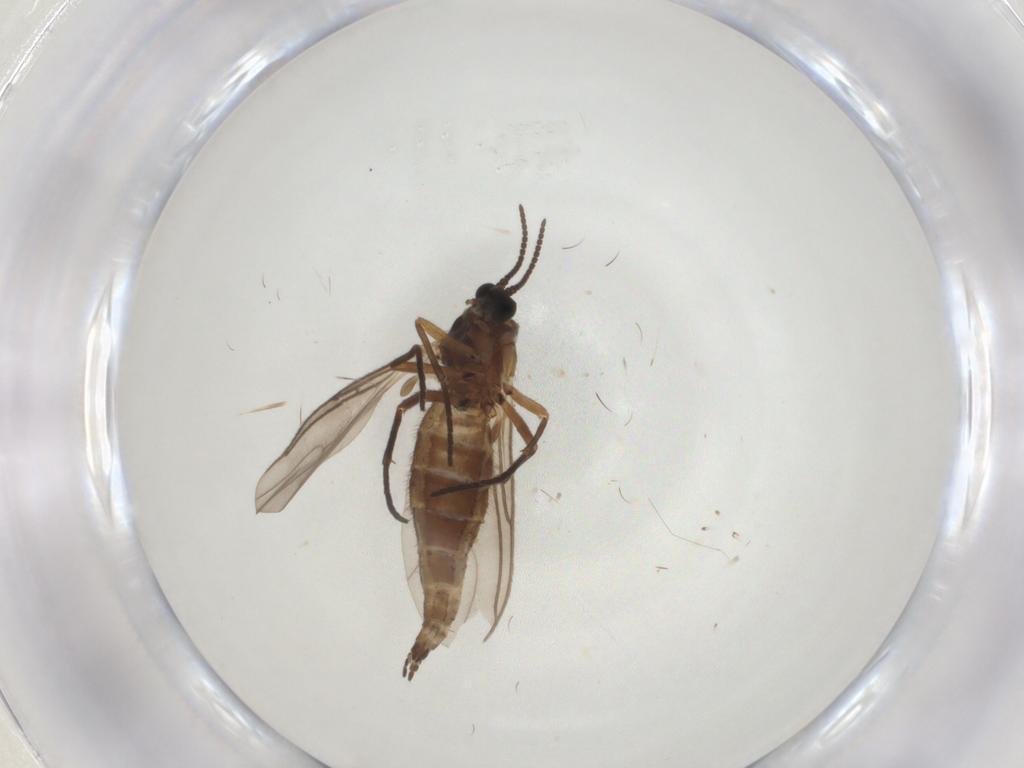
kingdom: Animalia
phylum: Arthropoda
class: Insecta
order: Diptera
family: Sciaridae
